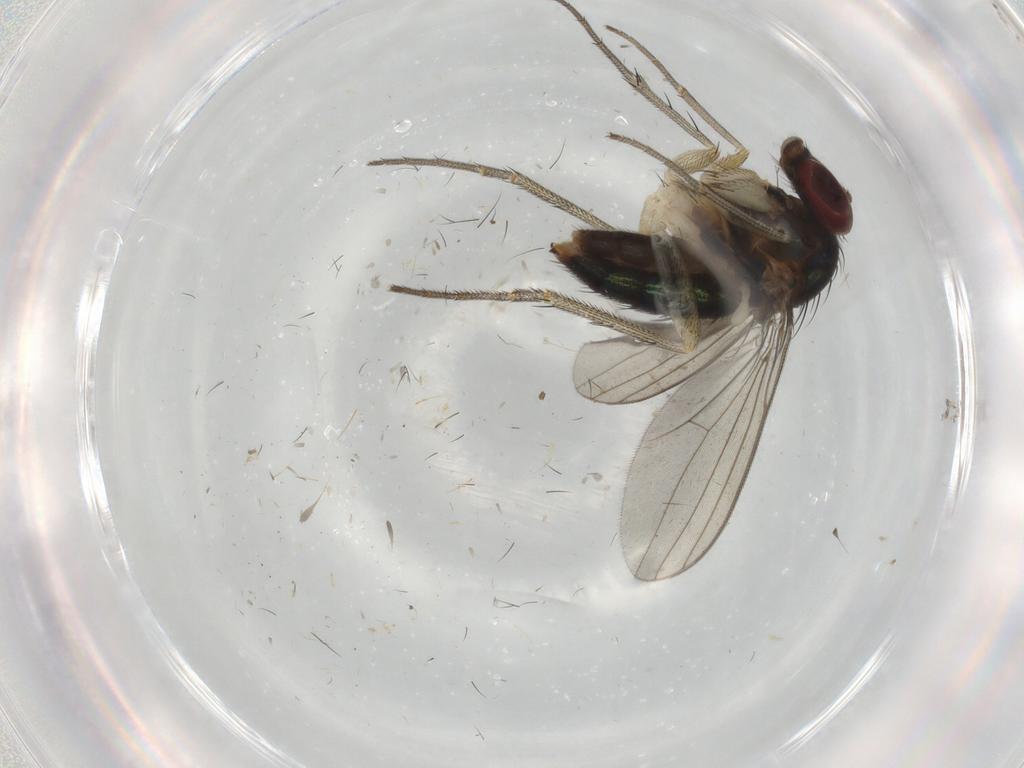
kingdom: Animalia
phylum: Arthropoda
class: Insecta
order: Diptera
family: Dolichopodidae
